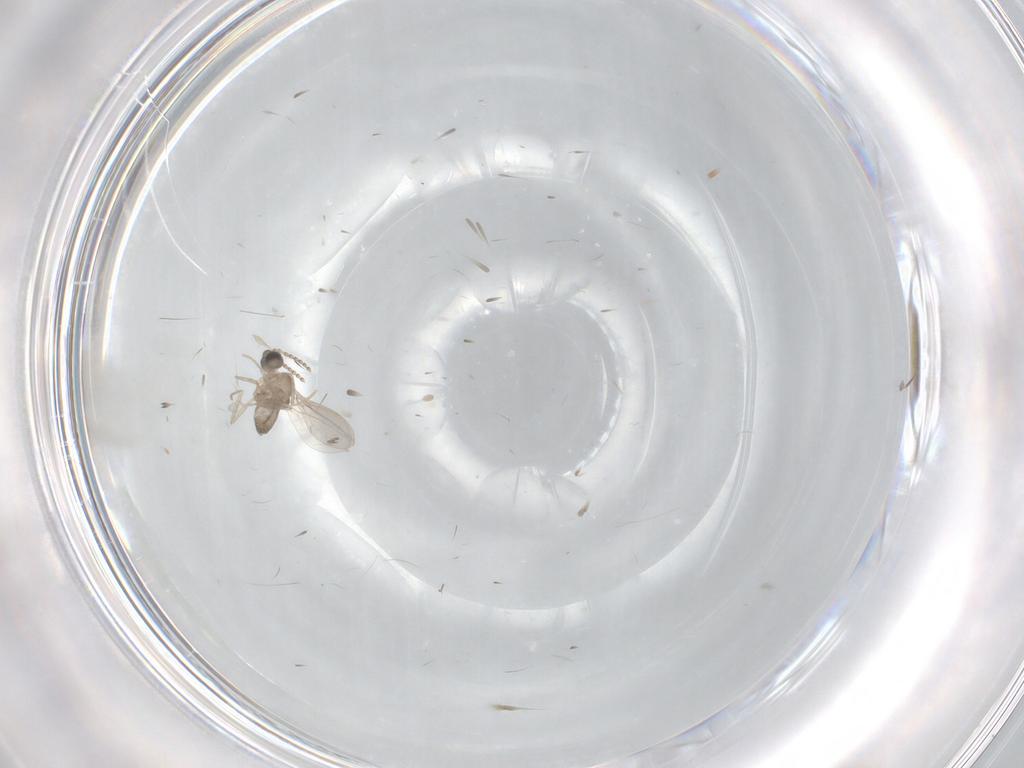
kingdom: Animalia
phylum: Arthropoda
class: Insecta
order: Diptera
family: Cecidomyiidae
